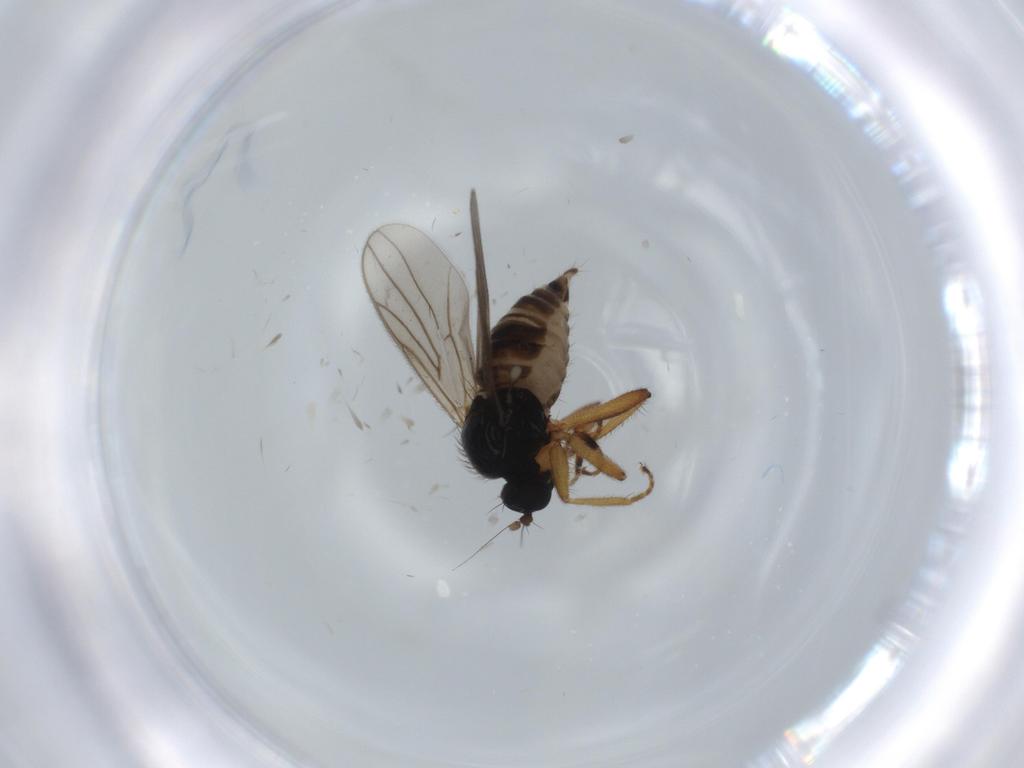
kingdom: Animalia
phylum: Arthropoda
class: Insecta
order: Diptera
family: Hybotidae
